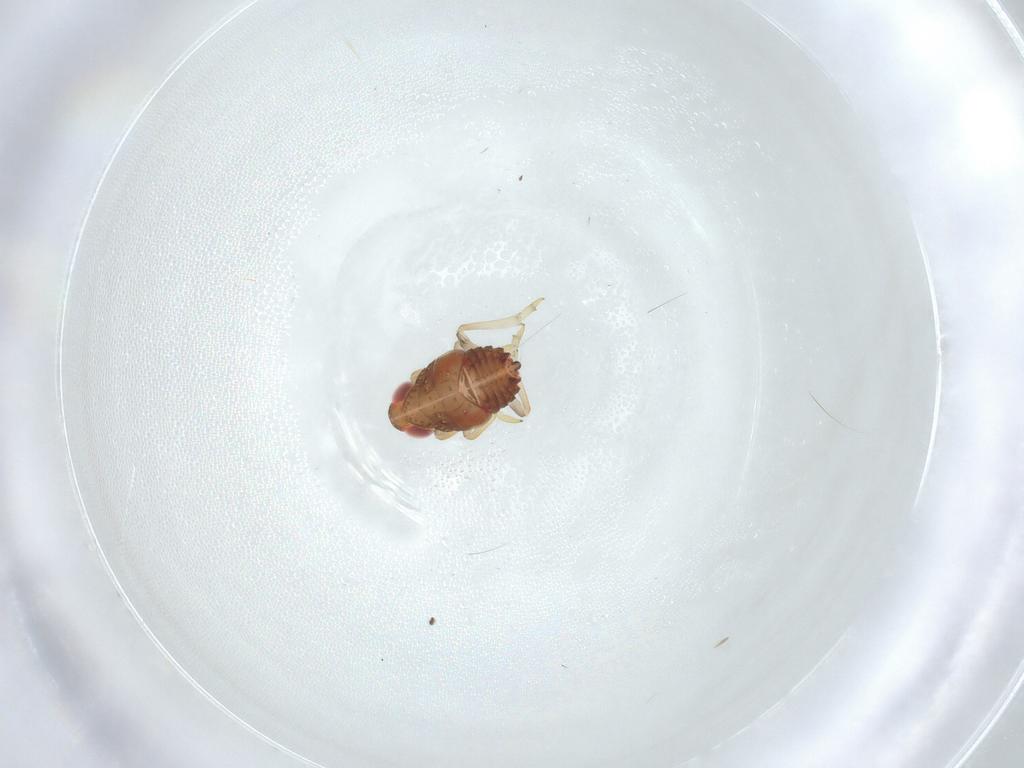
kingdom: Animalia
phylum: Arthropoda
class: Insecta
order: Hemiptera
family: Issidae
